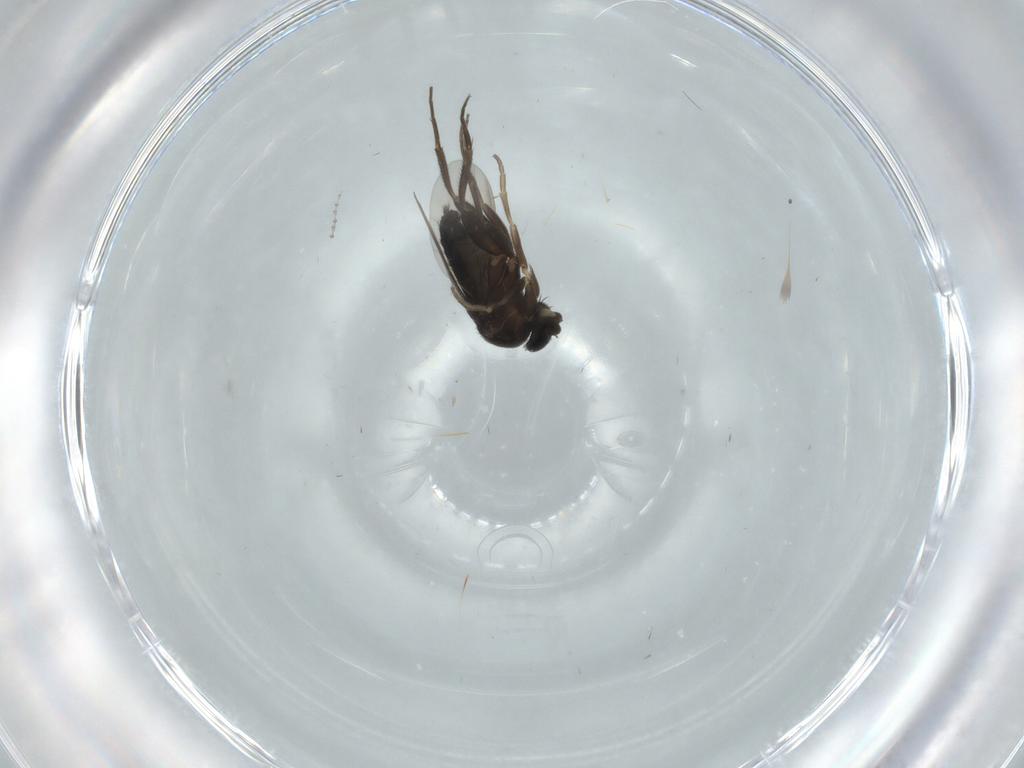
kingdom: Animalia
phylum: Arthropoda
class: Insecta
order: Diptera
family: Cecidomyiidae
